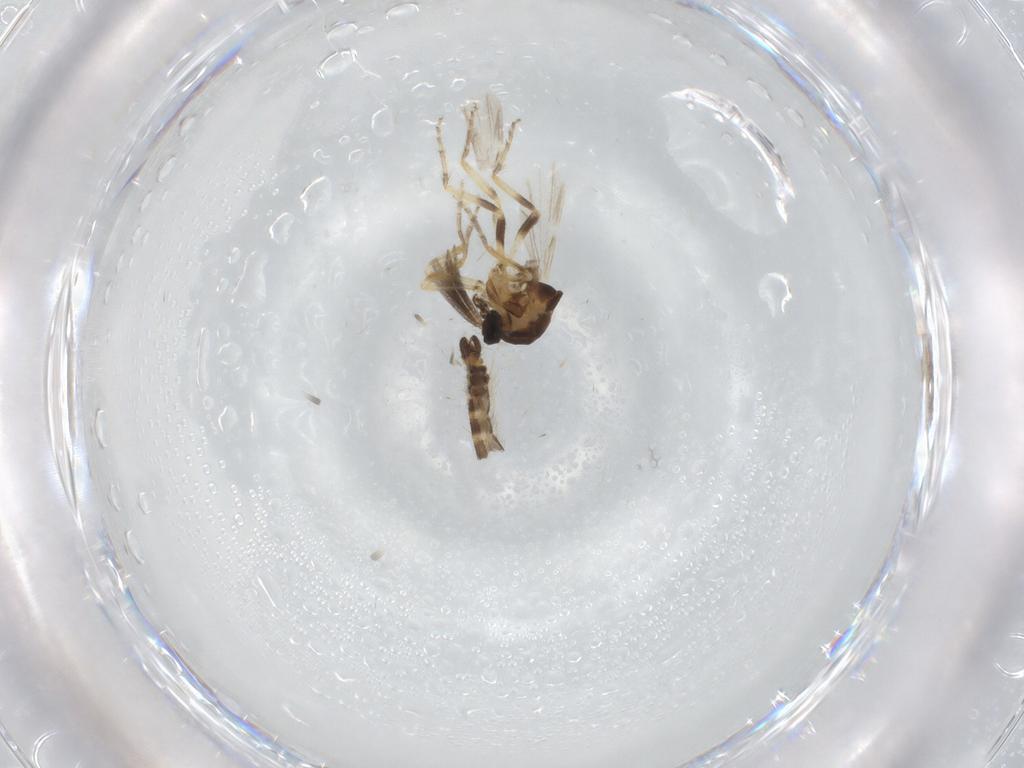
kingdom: Animalia
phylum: Arthropoda
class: Insecta
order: Diptera
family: Ceratopogonidae
